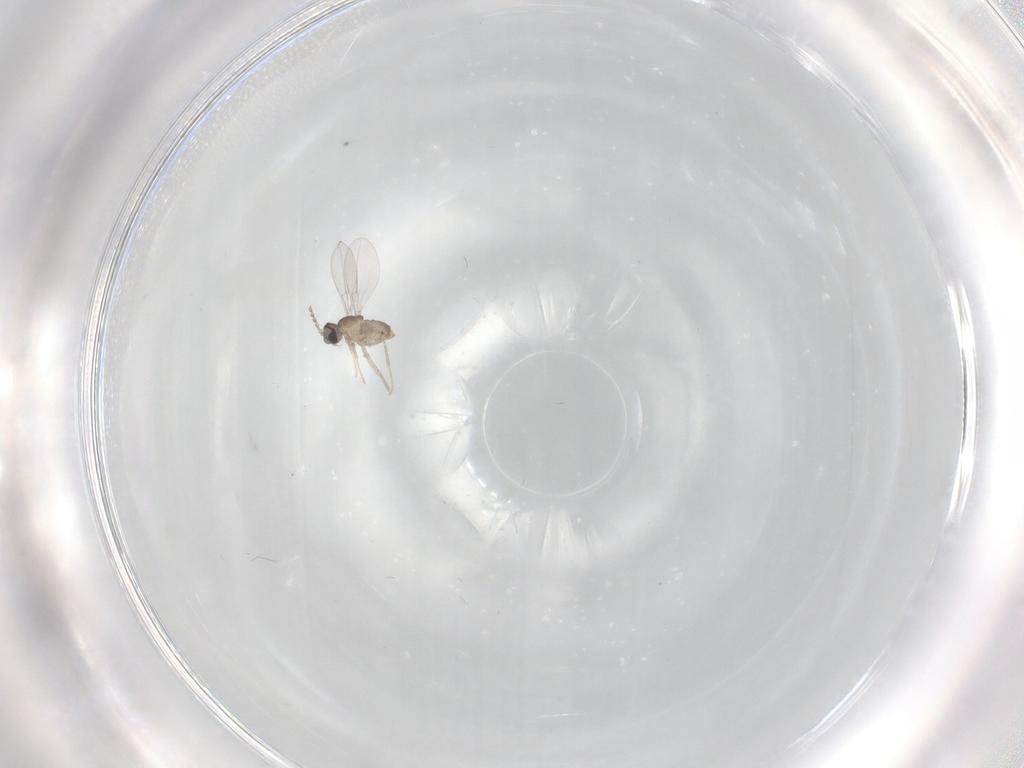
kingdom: Animalia
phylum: Arthropoda
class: Insecta
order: Diptera
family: Cecidomyiidae
